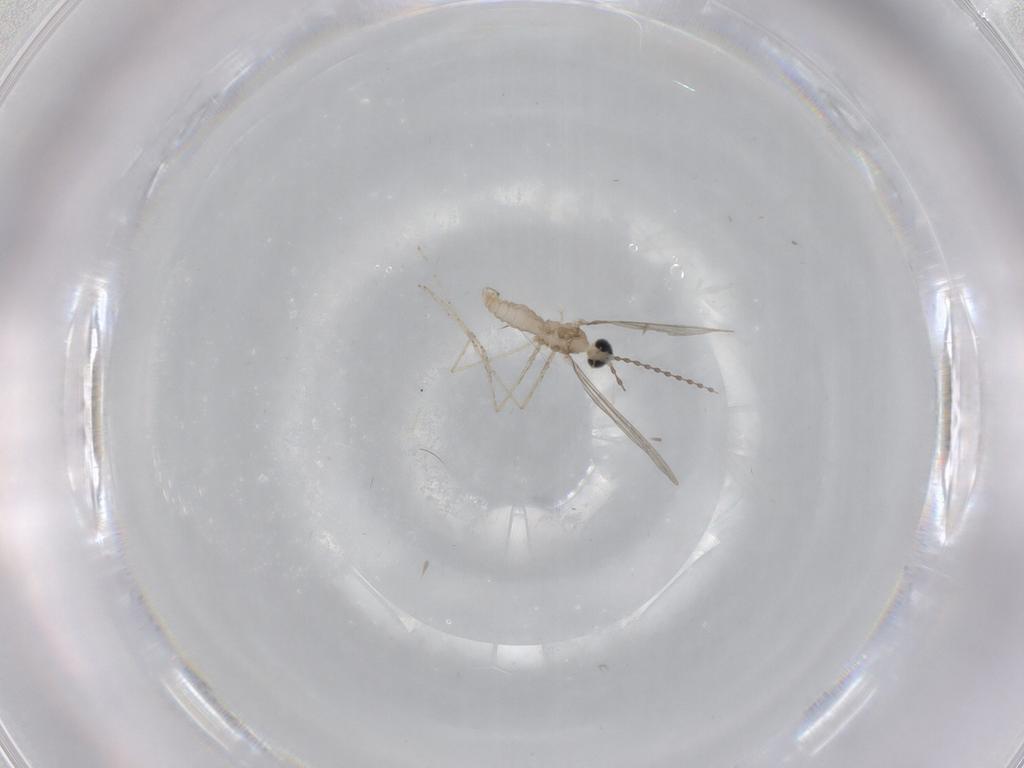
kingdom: Animalia
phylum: Arthropoda
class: Insecta
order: Diptera
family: Cecidomyiidae
